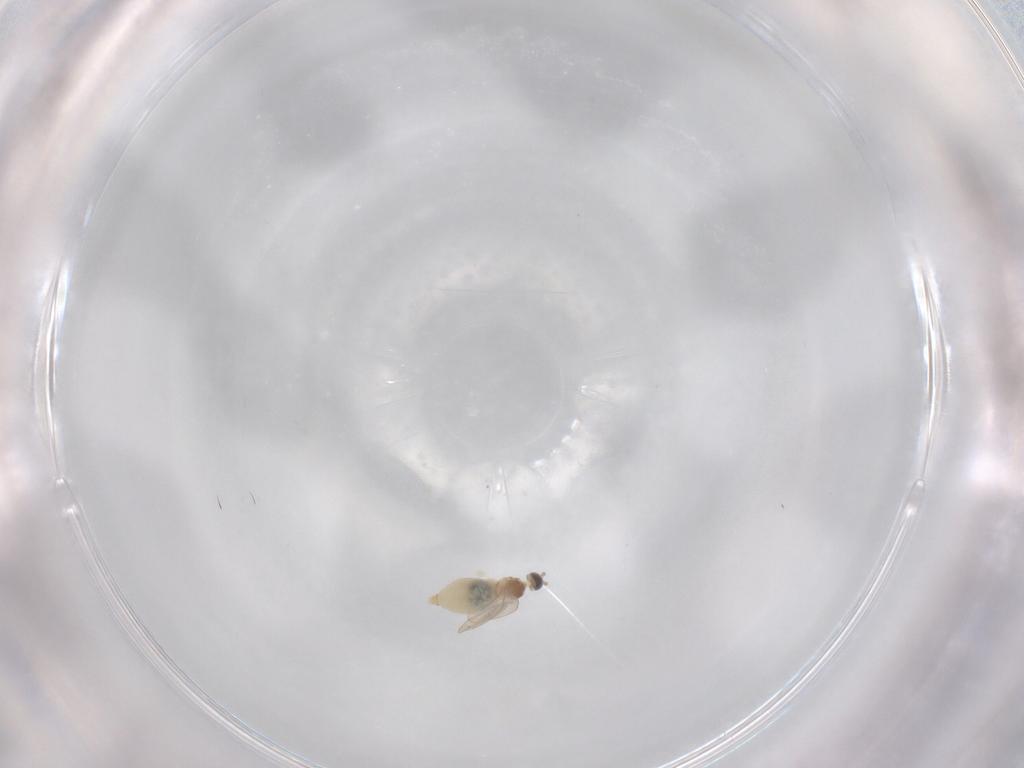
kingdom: Animalia
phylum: Arthropoda
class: Insecta
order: Diptera
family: Cecidomyiidae
